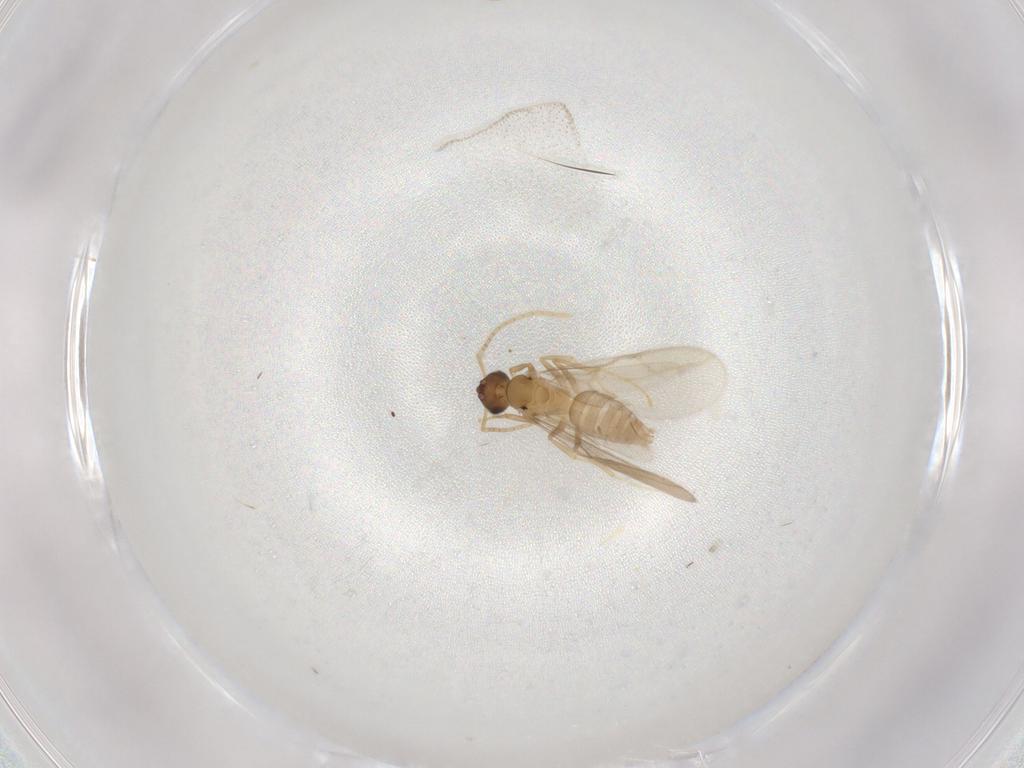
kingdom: Animalia
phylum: Arthropoda
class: Insecta
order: Hymenoptera
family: Formicidae
